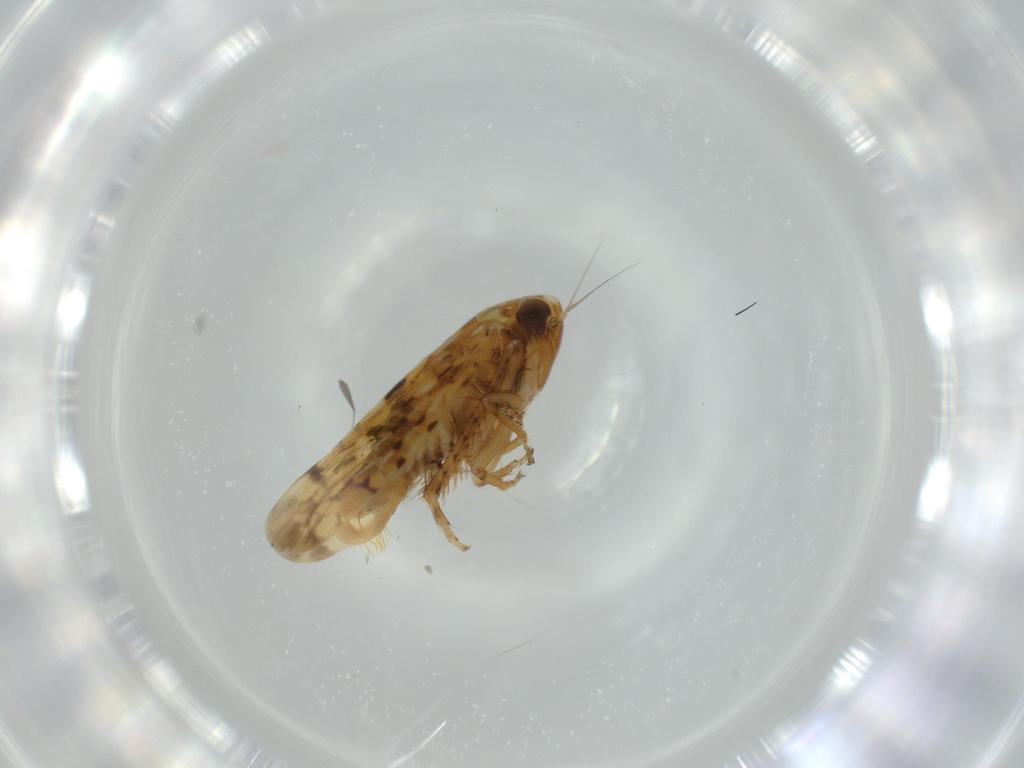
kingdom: Animalia
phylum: Arthropoda
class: Insecta
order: Hemiptera
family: Cicadellidae
